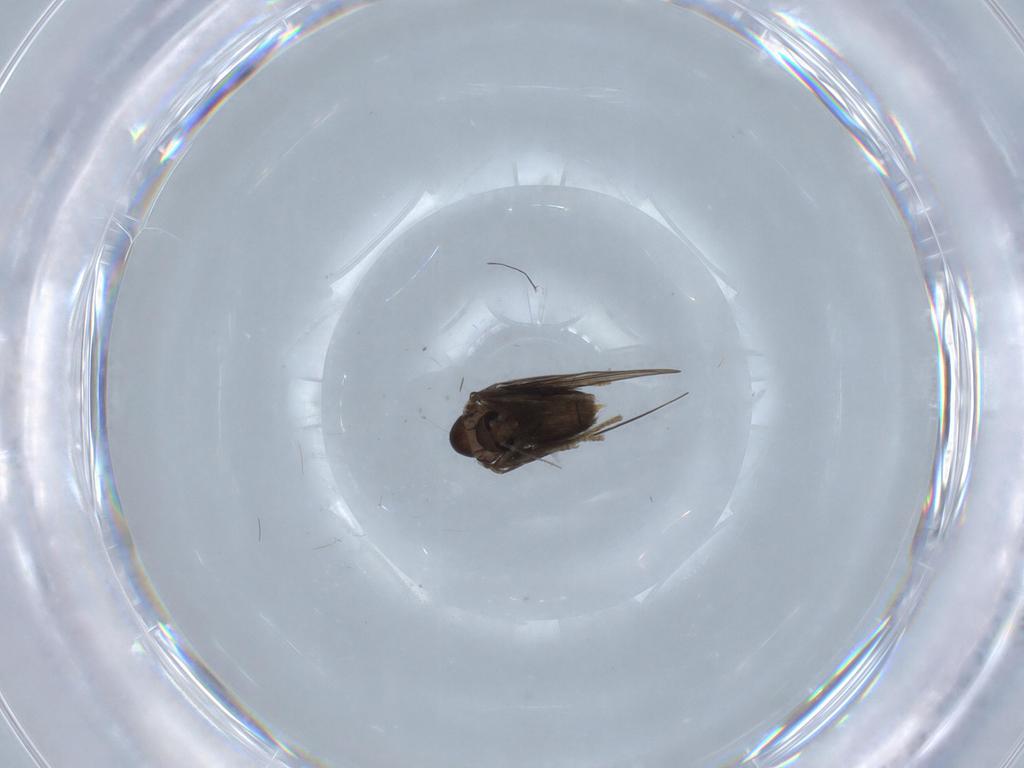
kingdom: Animalia
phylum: Arthropoda
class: Insecta
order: Diptera
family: Psychodidae
